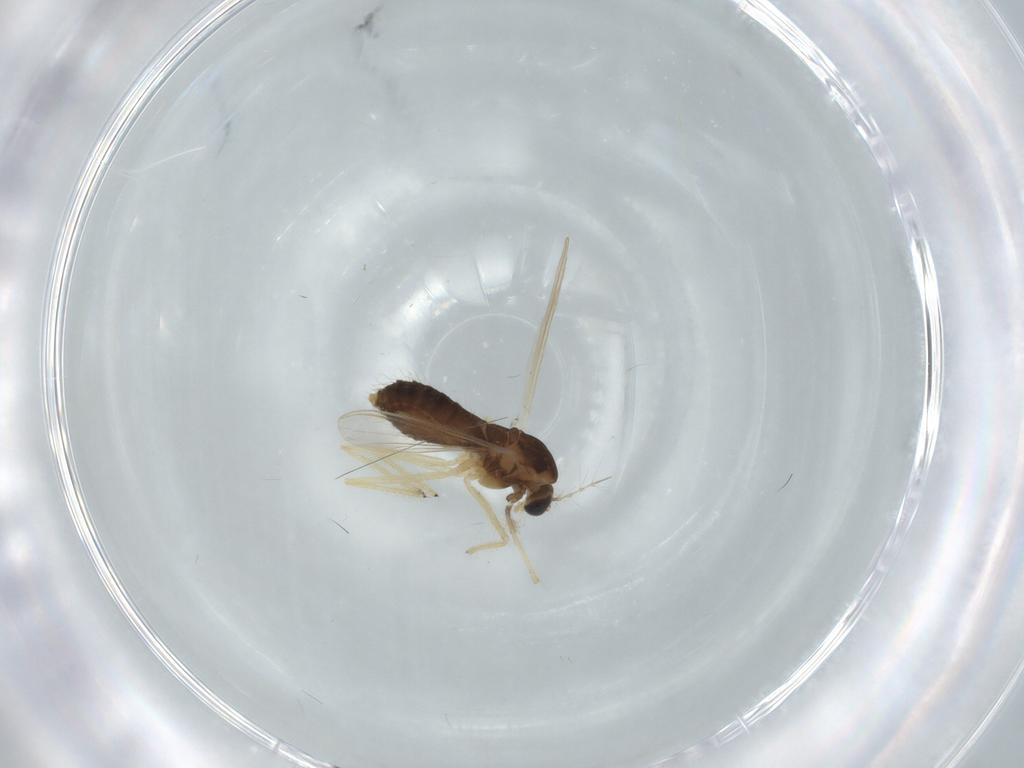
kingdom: Animalia
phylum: Arthropoda
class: Insecta
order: Diptera
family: Chironomidae
